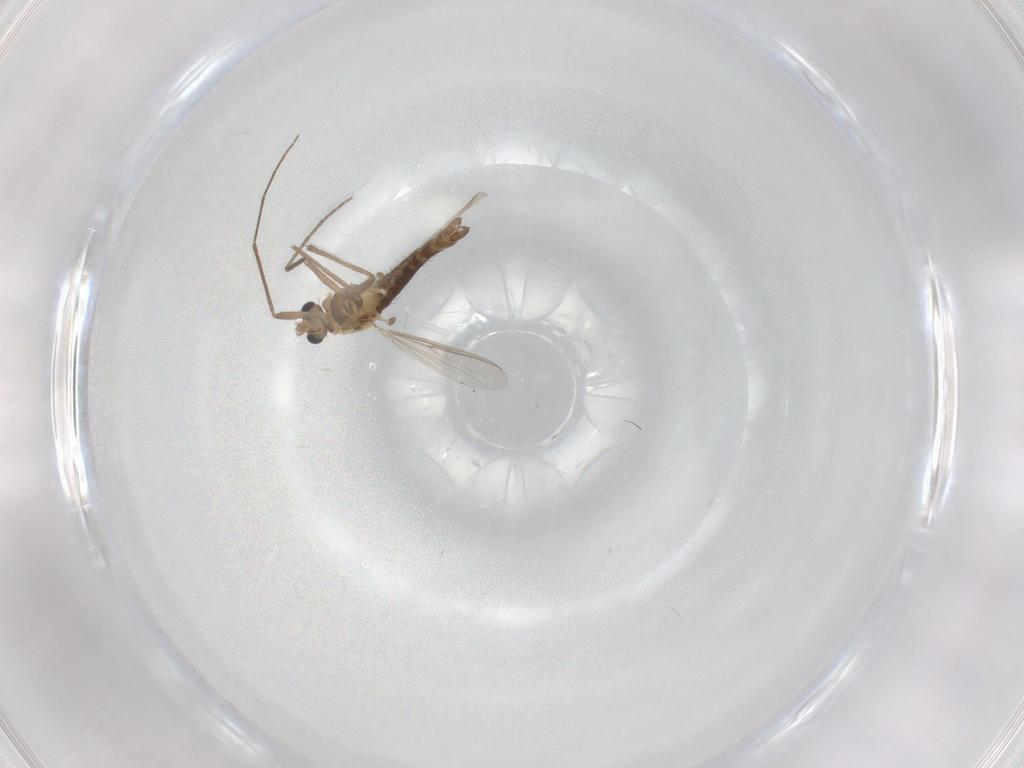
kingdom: Animalia
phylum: Arthropoda
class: Insecta
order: Diptera
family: Chironomidae
